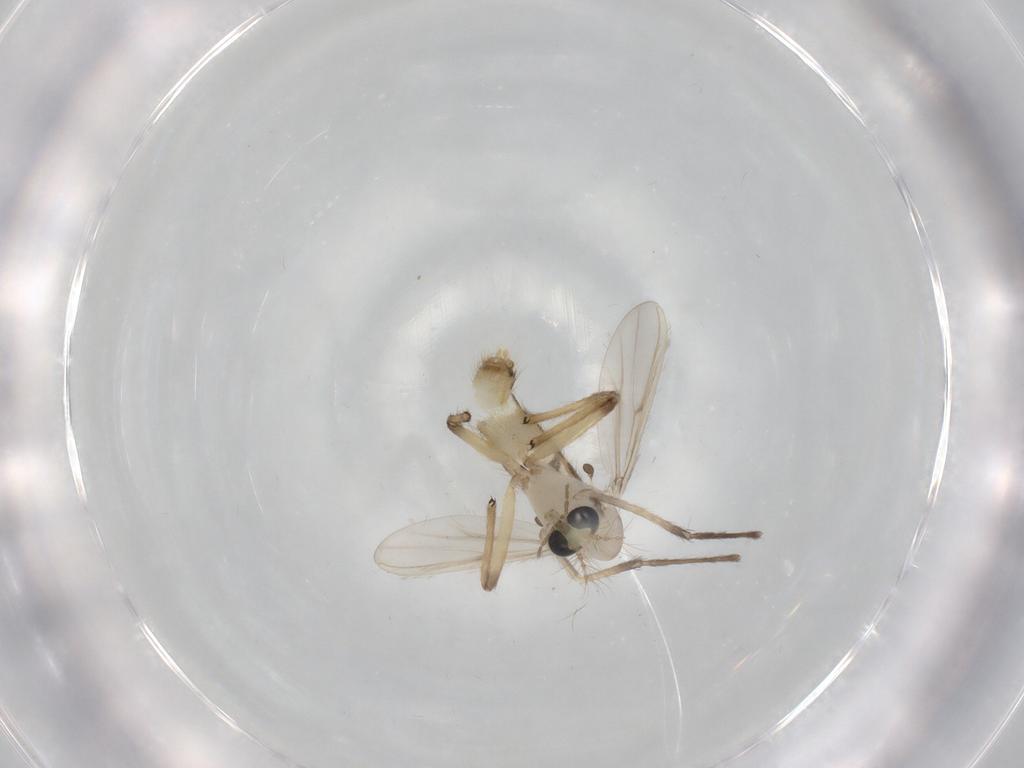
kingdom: Animalia
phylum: Arthropoda
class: Insecta
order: Diptera
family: Chironomidae
